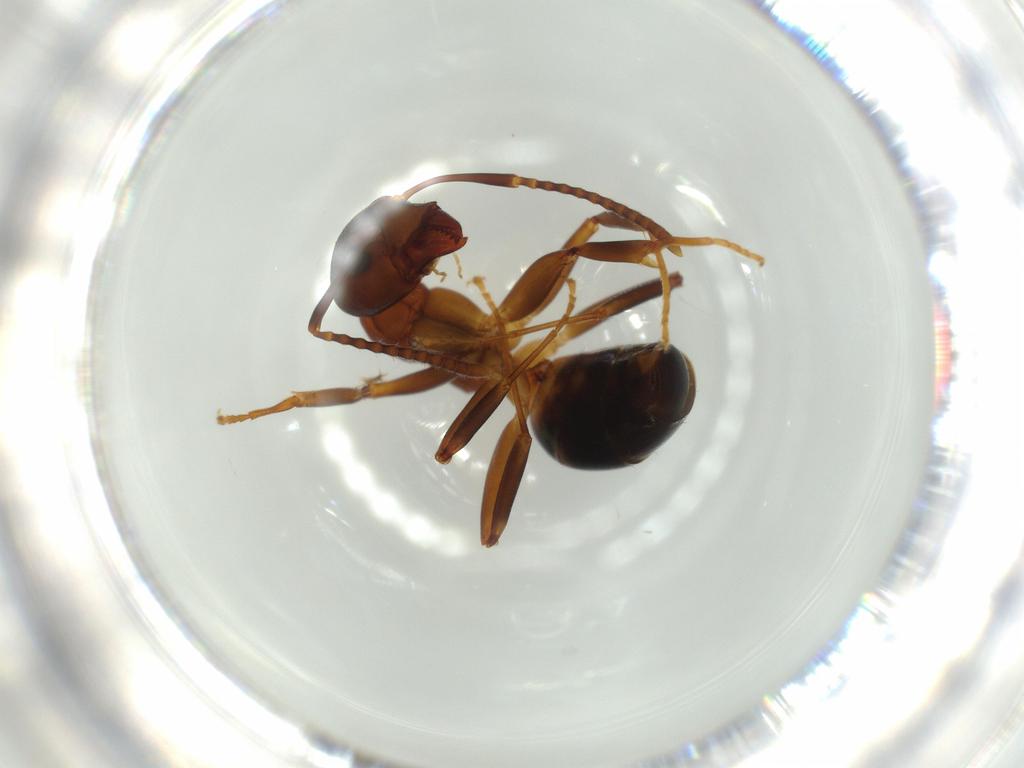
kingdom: Animalia
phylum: Arthropoda
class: Insecta
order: Hymenoptera
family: Formicidae
